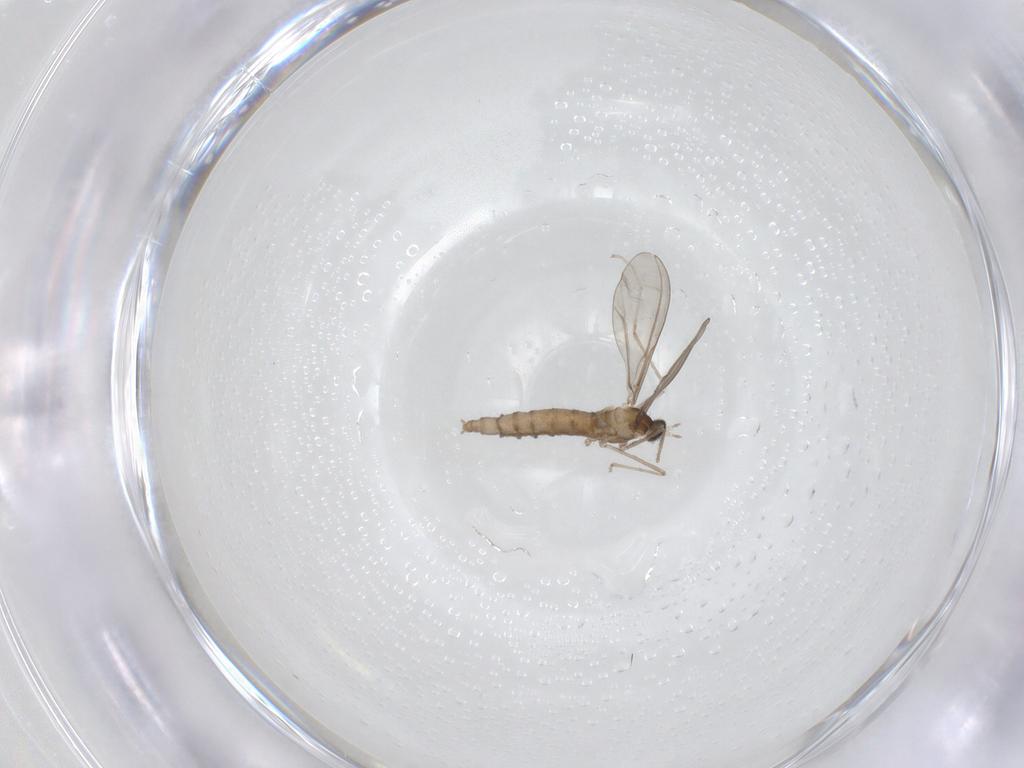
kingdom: Animalia
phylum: Arthropoda
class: Insecta
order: Diptera
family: Cecidomyiidae
